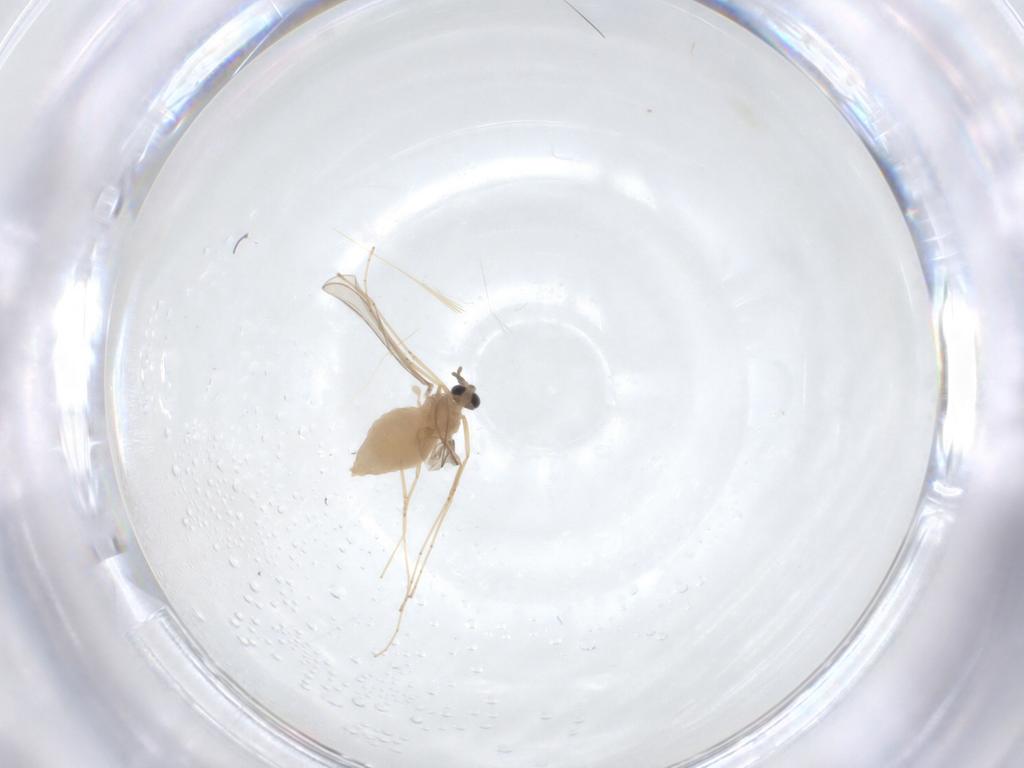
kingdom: Animalia
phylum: Arthropoda
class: Insecta
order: Diptera
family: Cecidomyiidae
